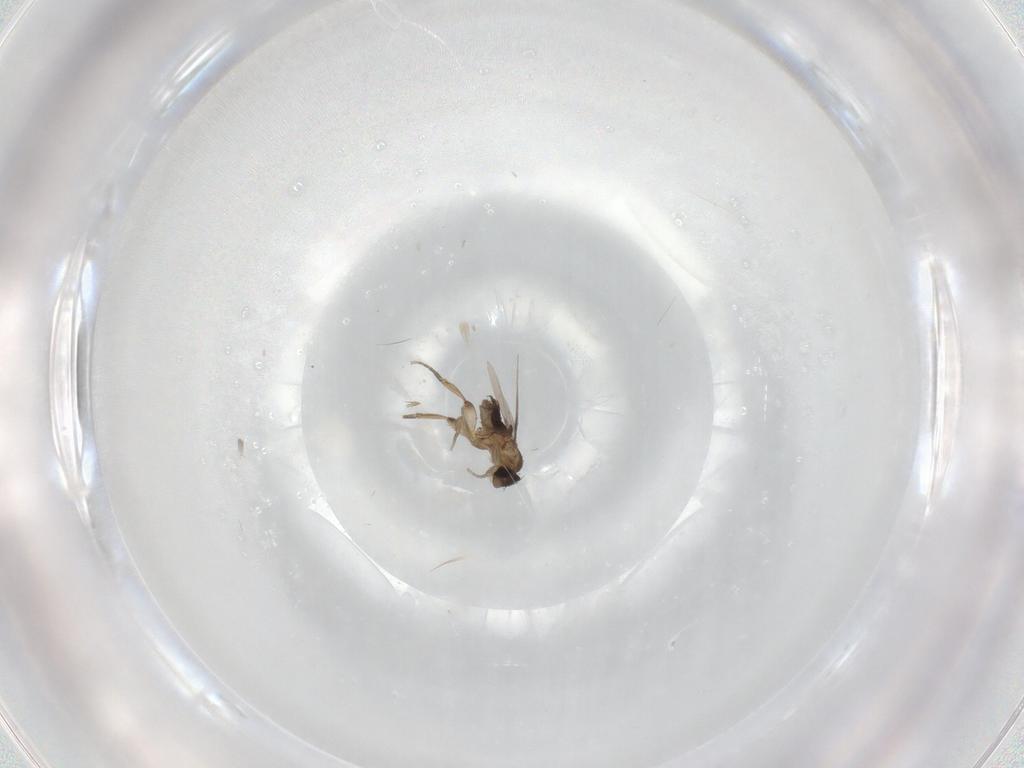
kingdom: Animalia
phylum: Arthropoda
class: Insecta
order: Diptera
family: Phoridae
